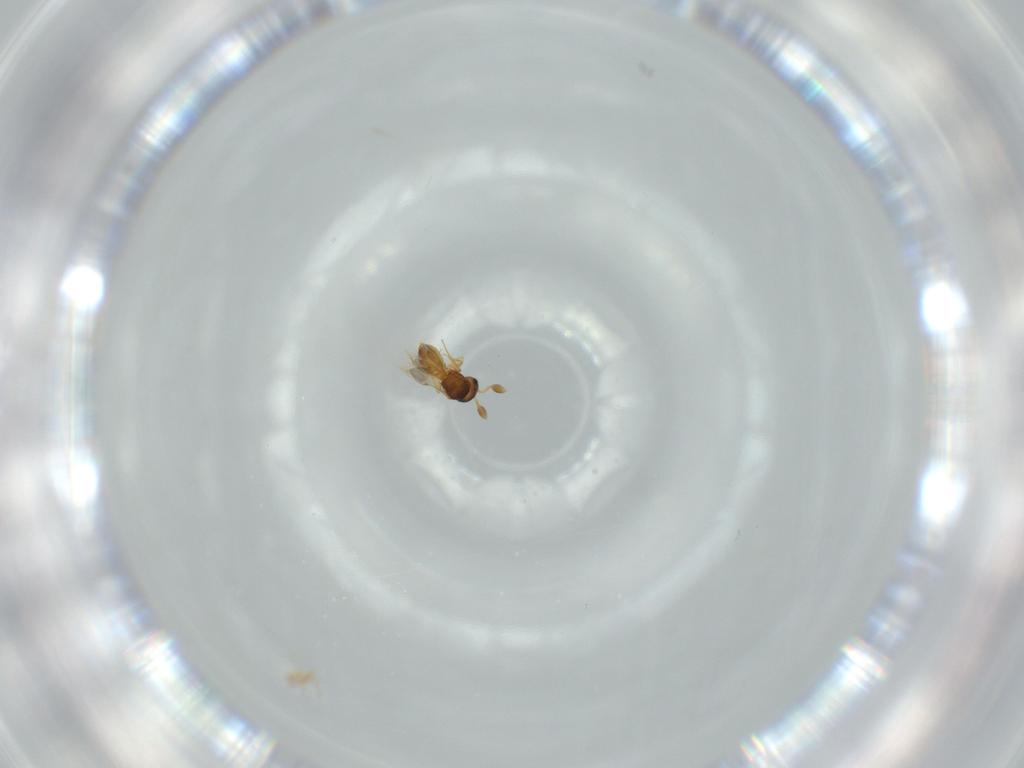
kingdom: Animalia
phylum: Arthropoda
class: Insecta
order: Hymenoptera
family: Scelionidae
